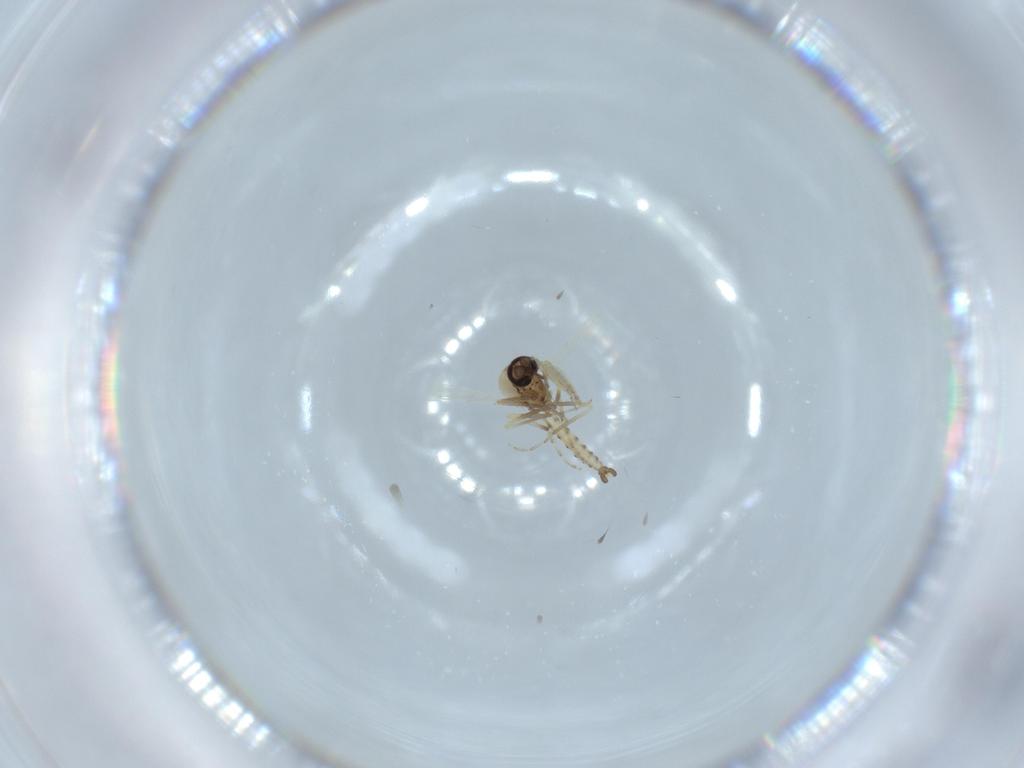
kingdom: Animalia
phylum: Arthropoda
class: Insecta
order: Diptera
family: Ceratopogonidae
